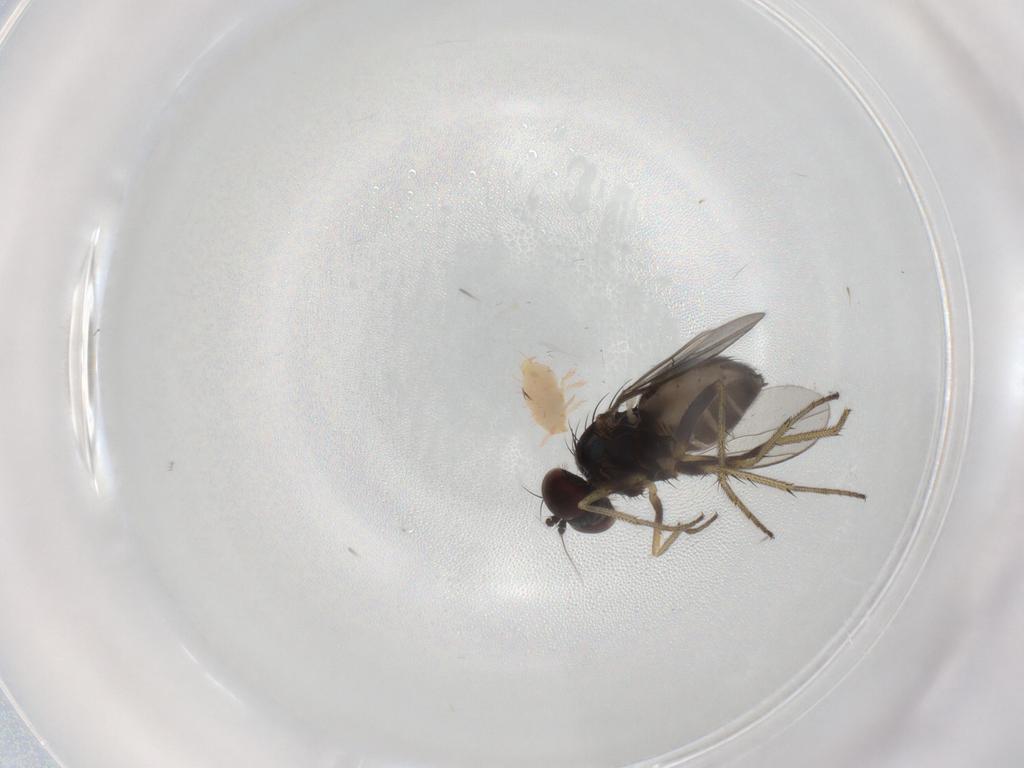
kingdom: Animalia
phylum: Arthropoda
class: Insecta
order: Diptera
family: Dolichopodidae
